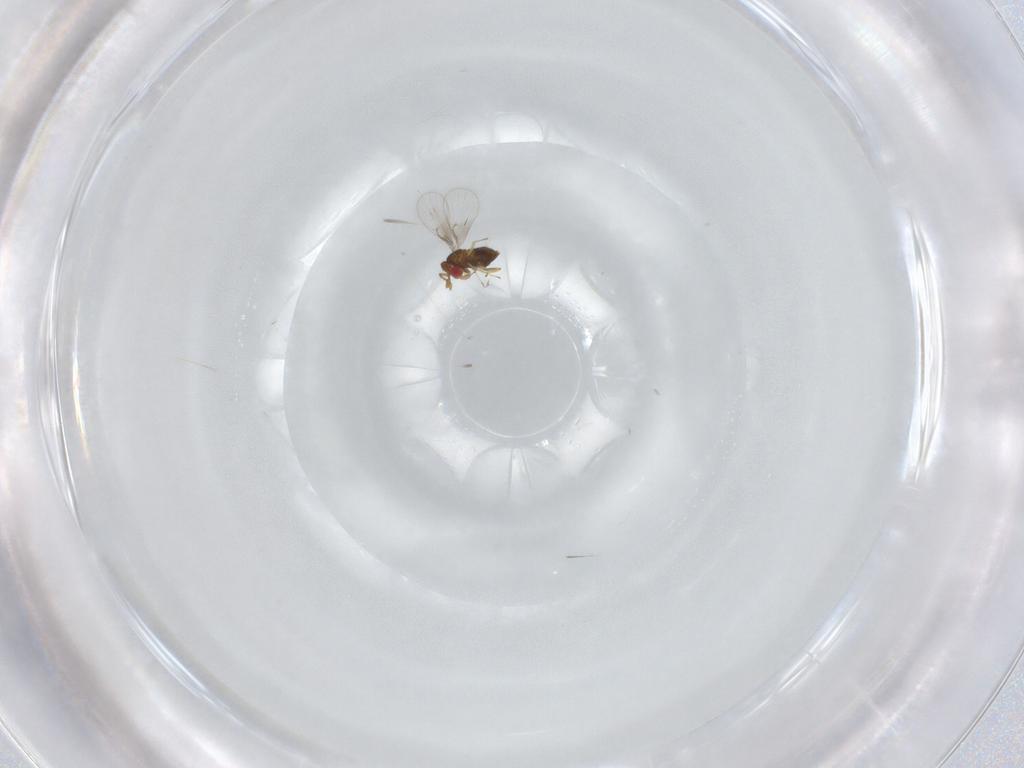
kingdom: Animalia
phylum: Arthropoda
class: Insecta
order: Hymenoptera
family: Trichogrammatidae
